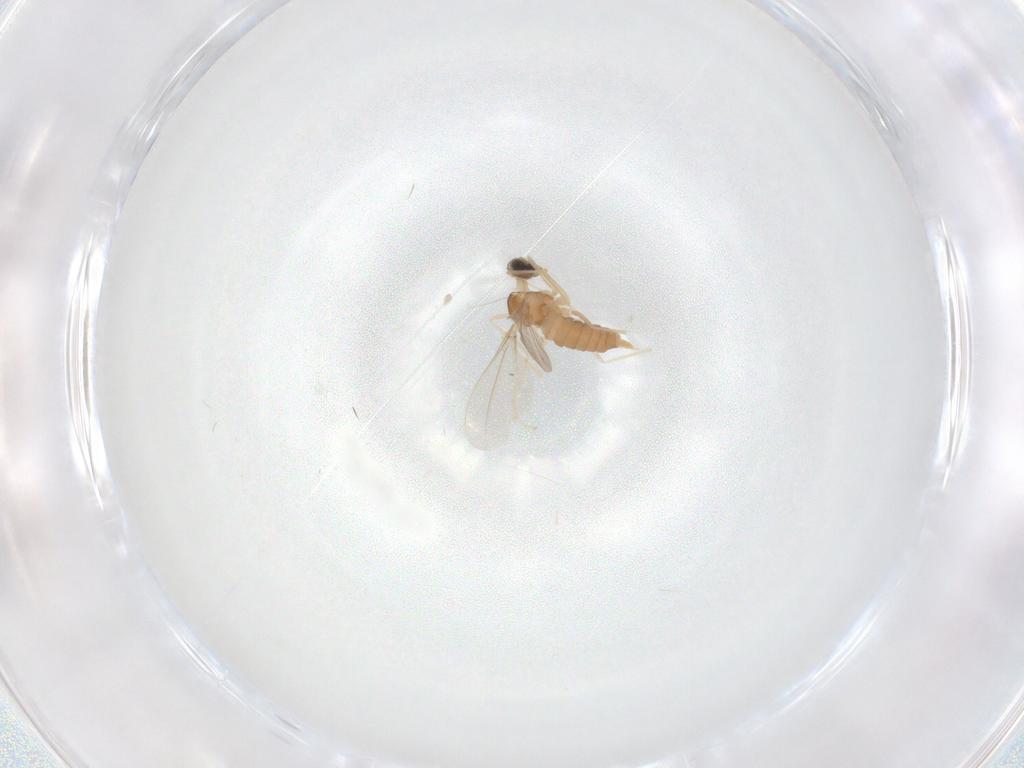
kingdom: Animalia
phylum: Arthropoda
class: Insecta
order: Diptera
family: Cecidomyiidae
